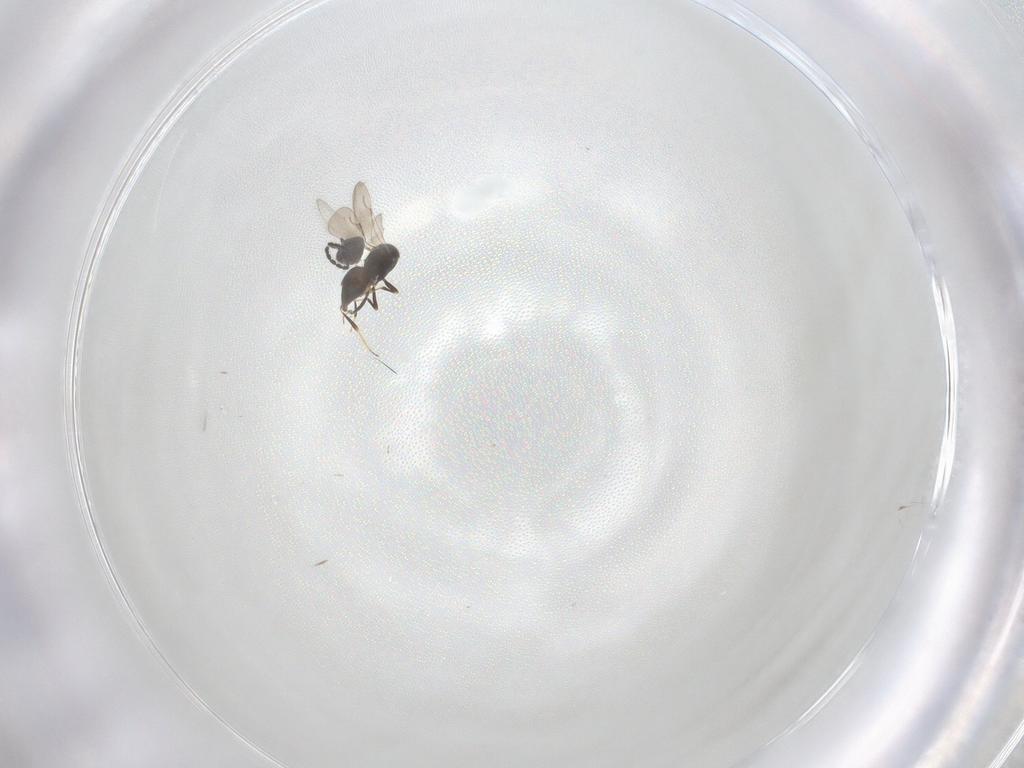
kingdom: Animalia
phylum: Arthropoda
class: Insecta
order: Hymenoptera
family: Ceraphronidae
